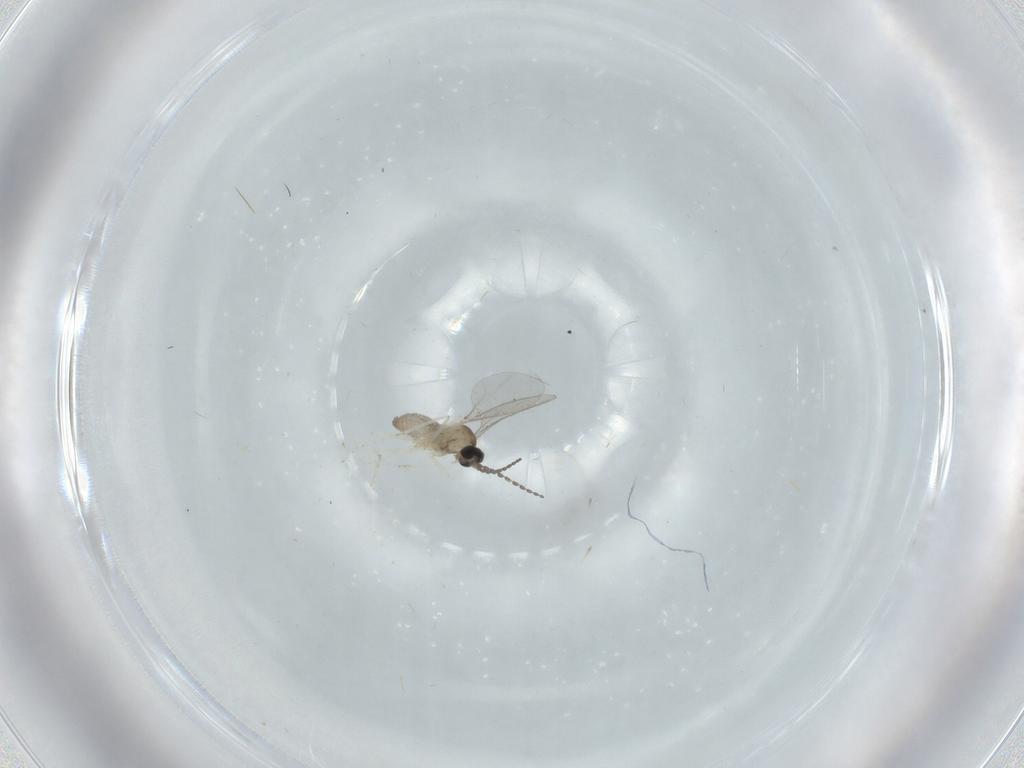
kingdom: Animalia
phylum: Arthropoda
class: Insecta
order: Diptera
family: Cecidomyiidae
